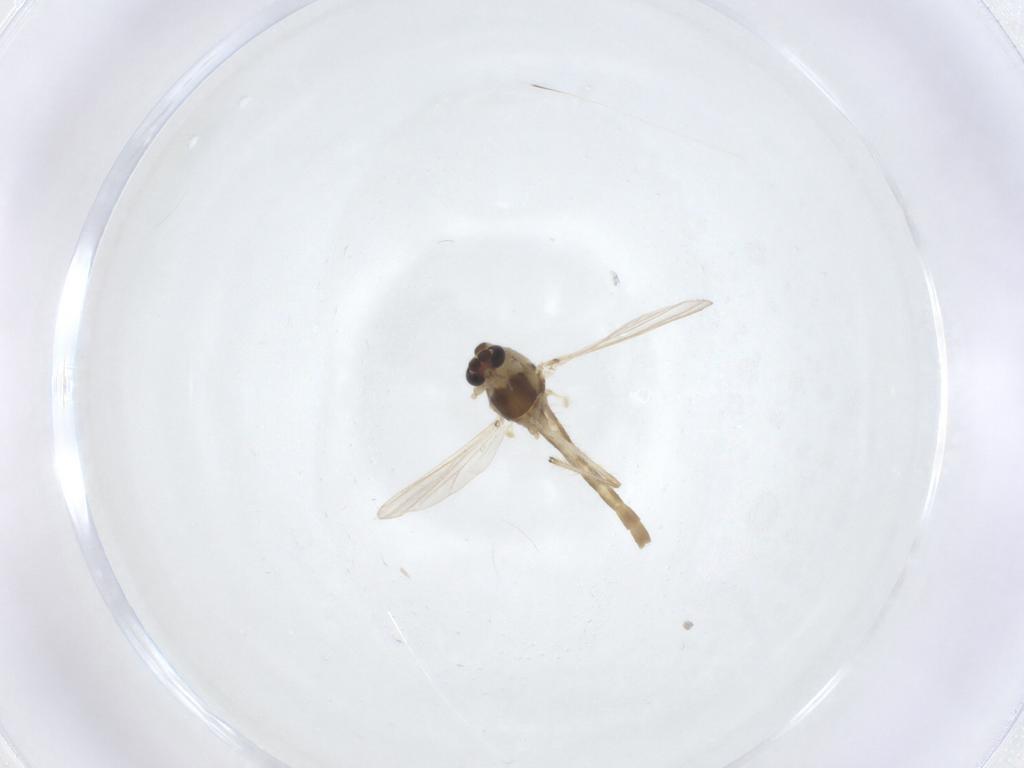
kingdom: Animalia
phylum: Arthropoda
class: Insecta
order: Diptera
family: Chironomidae
